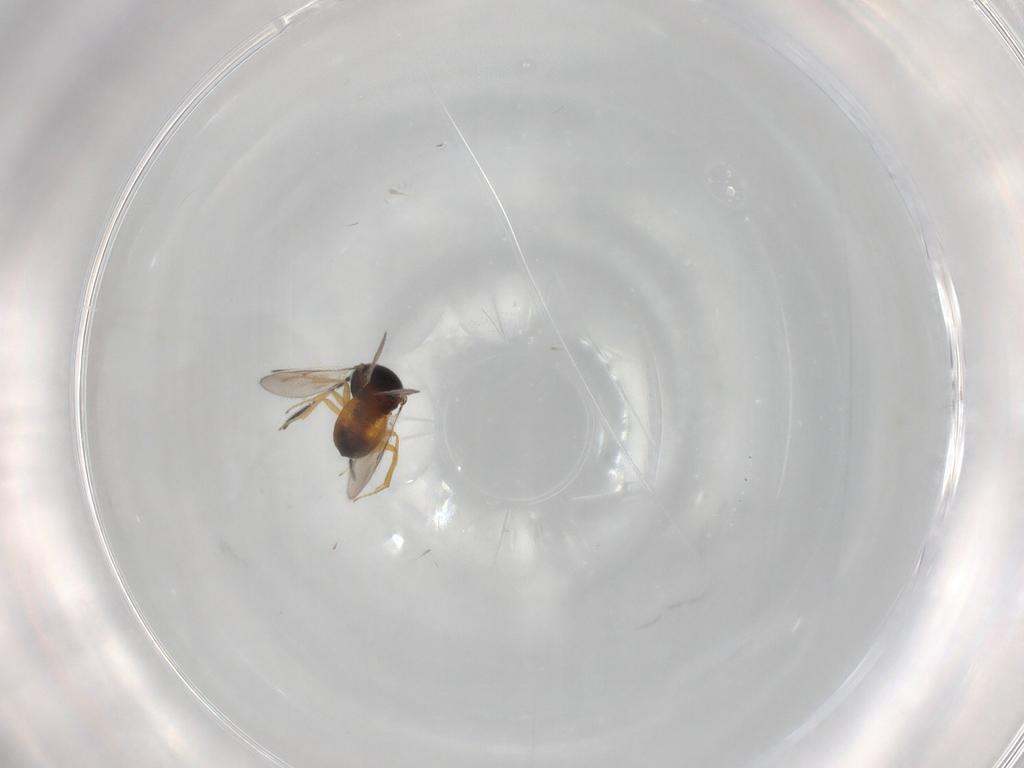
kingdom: Animalia
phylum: Arthropoda
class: Insecta
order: Hymenoptera
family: Scelionidae
